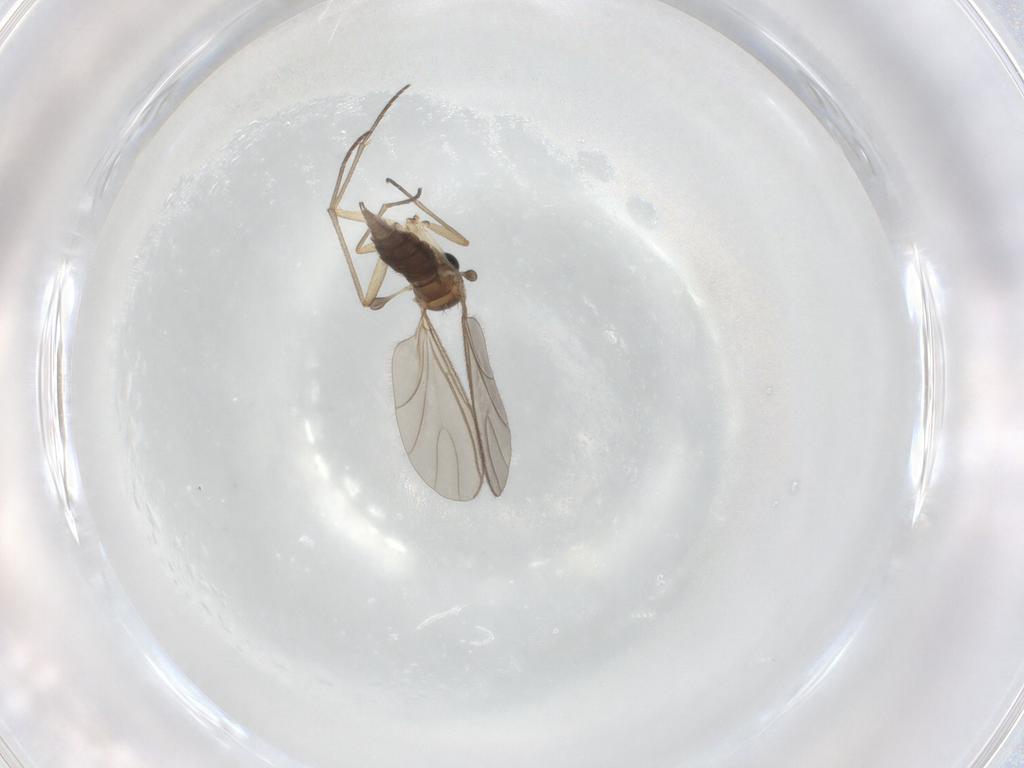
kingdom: Animalia
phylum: Arthropoda
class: Insecta
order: Diptera
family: Sciaridae
